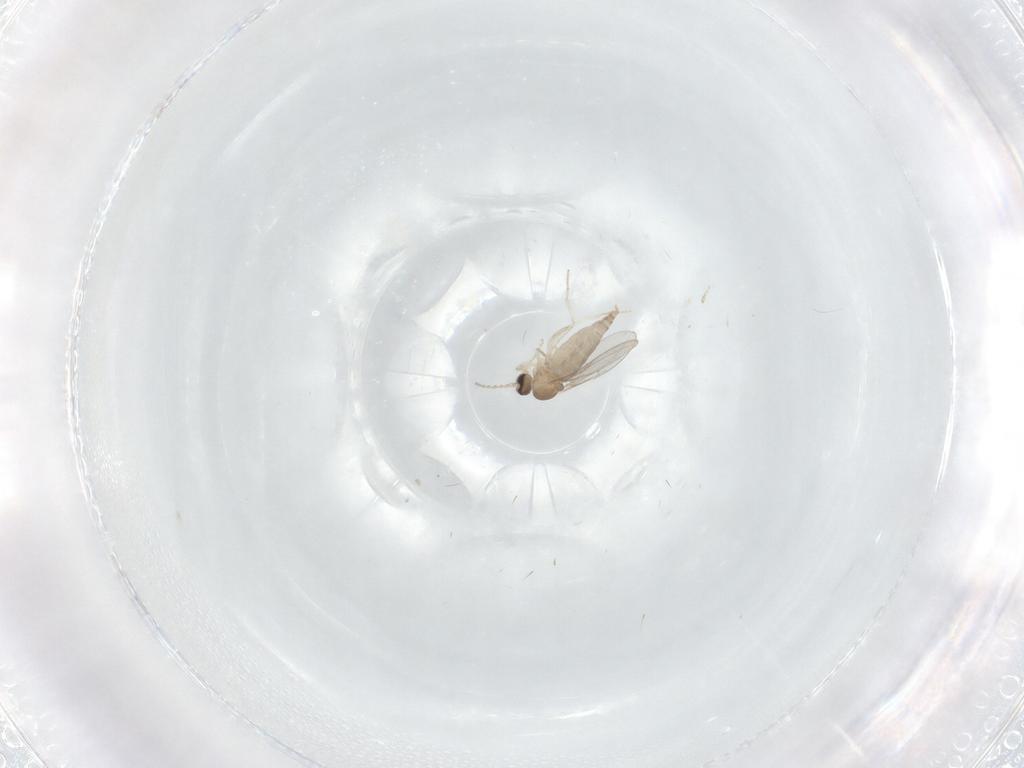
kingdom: Animalia
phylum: Arthropoda
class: Insecta
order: Diptera
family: Cecidomyiidae
